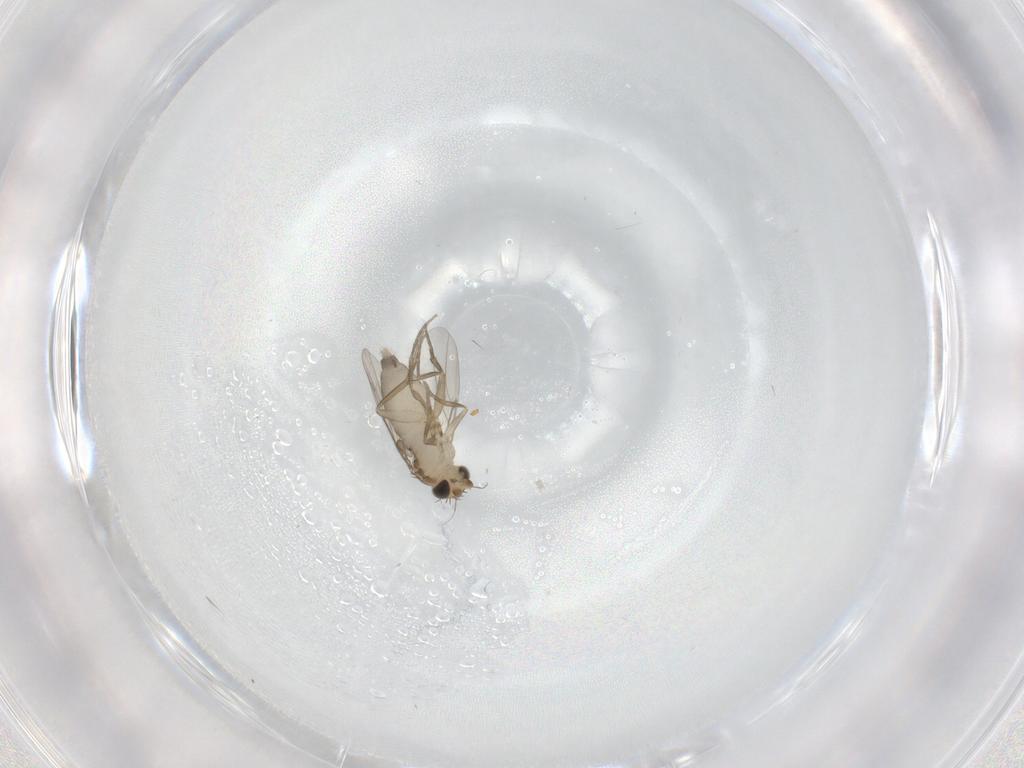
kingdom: Animalia
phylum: Arthropoda
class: Insecta
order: Diptera
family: Phoridae
